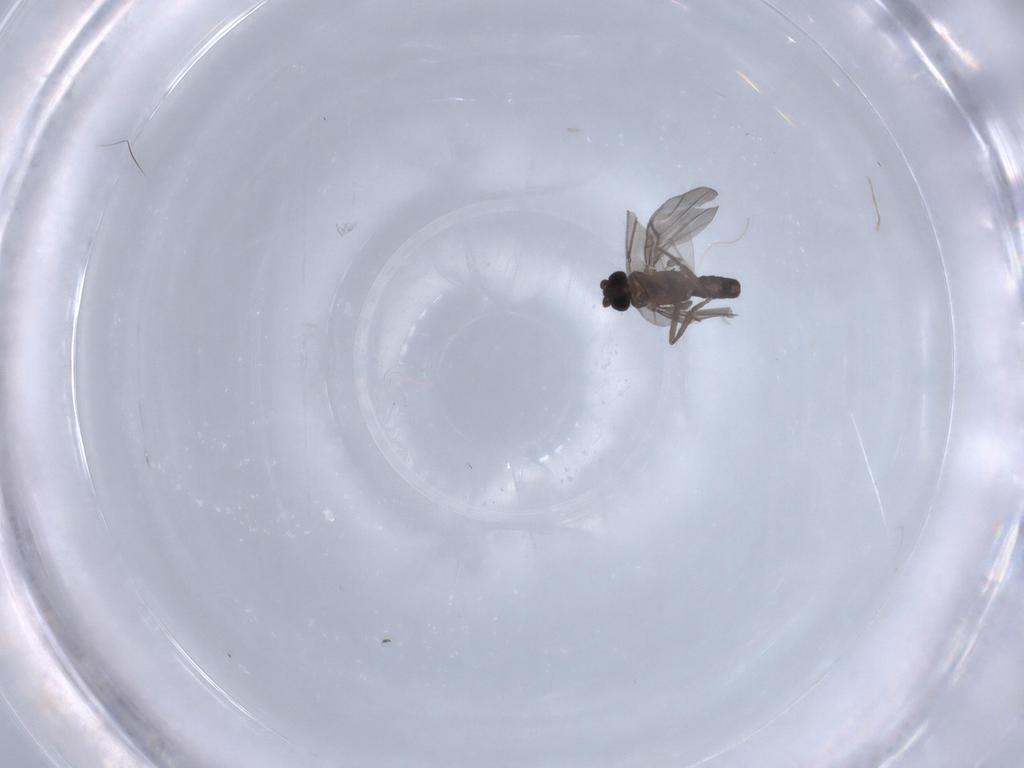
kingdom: Animalia
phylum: Arthropoda
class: Insecta
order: Diptera
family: Phoridae
